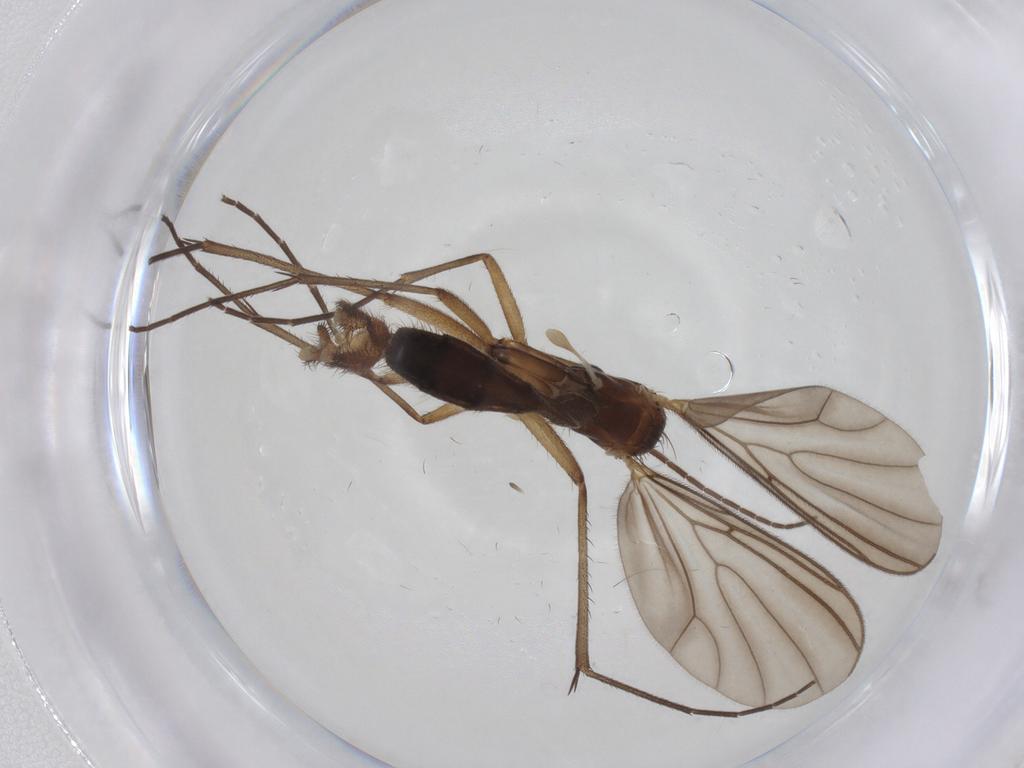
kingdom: Animalia
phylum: Arthropoda
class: Insecta
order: Diptera
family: Mycetophilidae
